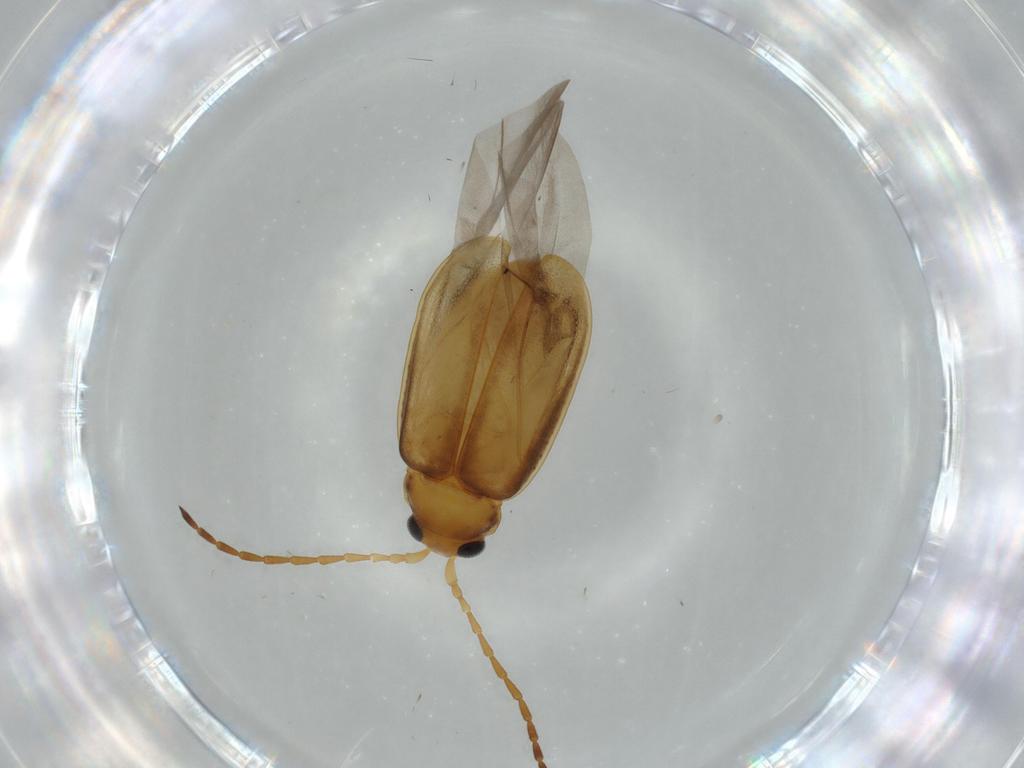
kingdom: Animalia
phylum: Arthropoda
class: Insecta
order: Coleoptera
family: Chrysomelidae
